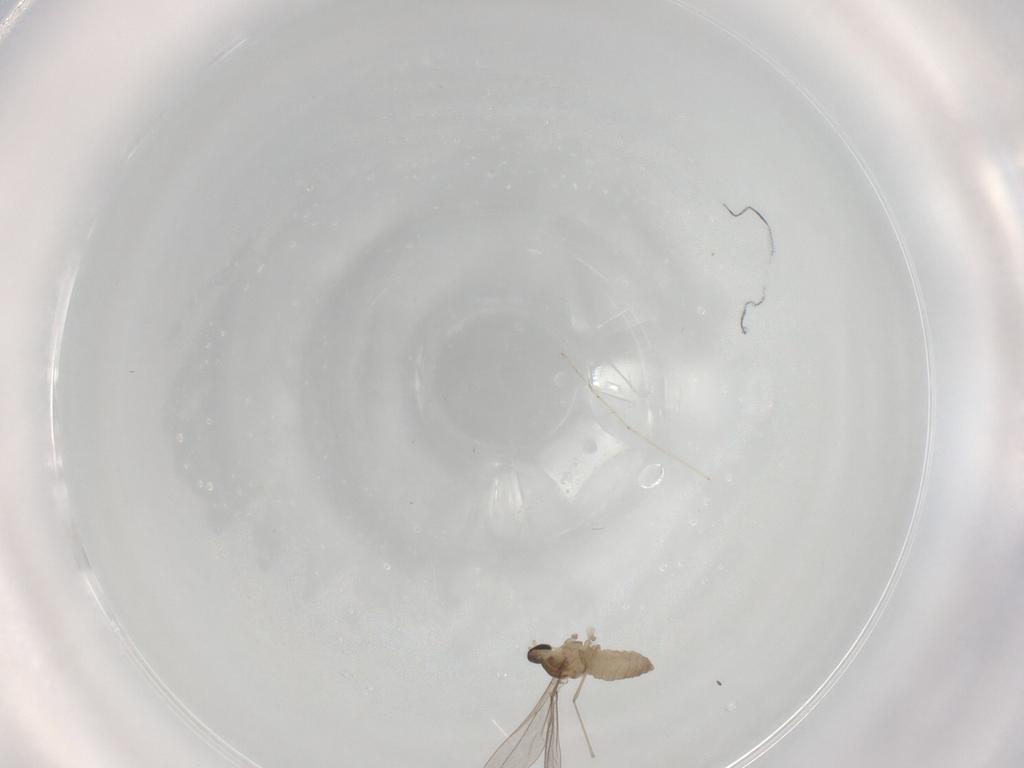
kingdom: Animalia
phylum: Arthropoda
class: Insecta
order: Diptera
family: Cecidomyiidae
